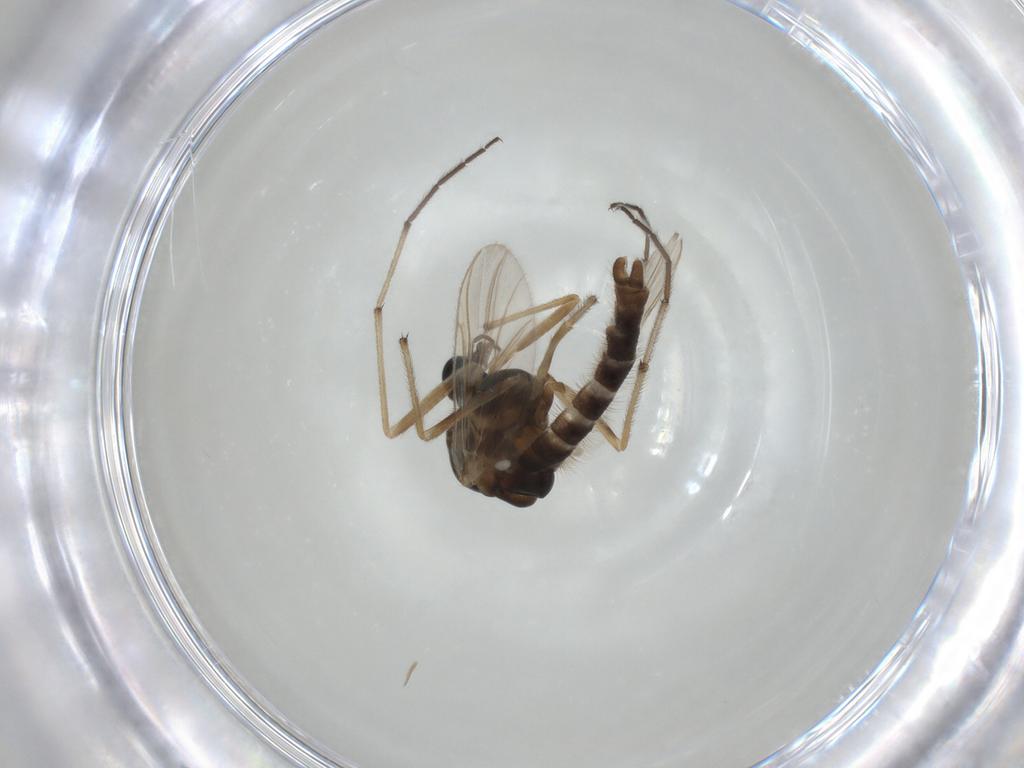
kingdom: Animalia
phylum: Arthropoda
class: Insecta
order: Diptera
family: Chironomidae
